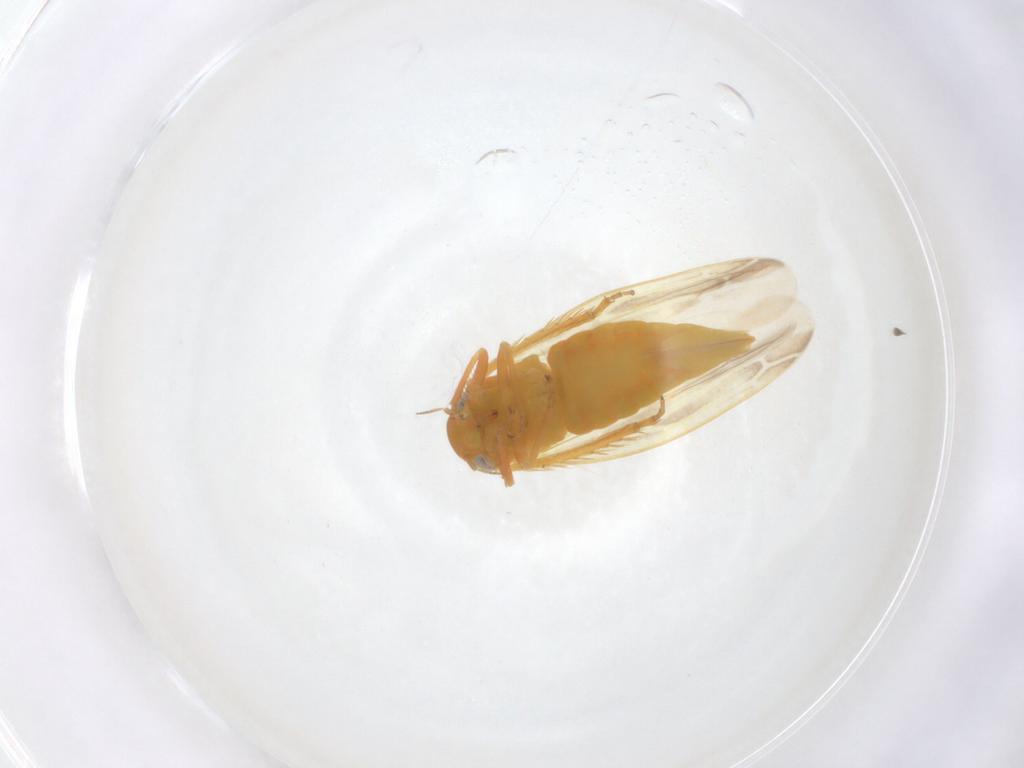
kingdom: Animalia
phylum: Arthropoda
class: Insecta
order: Hemiptera
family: Cicadellidae
